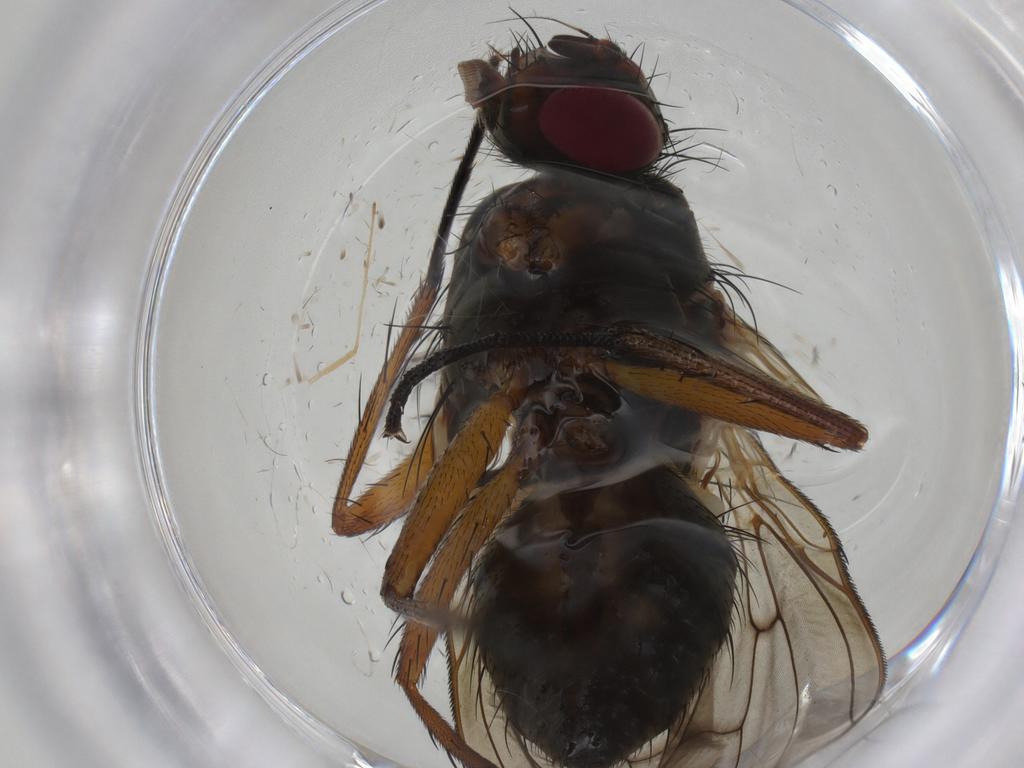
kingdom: Animalia
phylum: Arthropoda
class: Insecta
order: Diptera
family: Anthomyiidae
